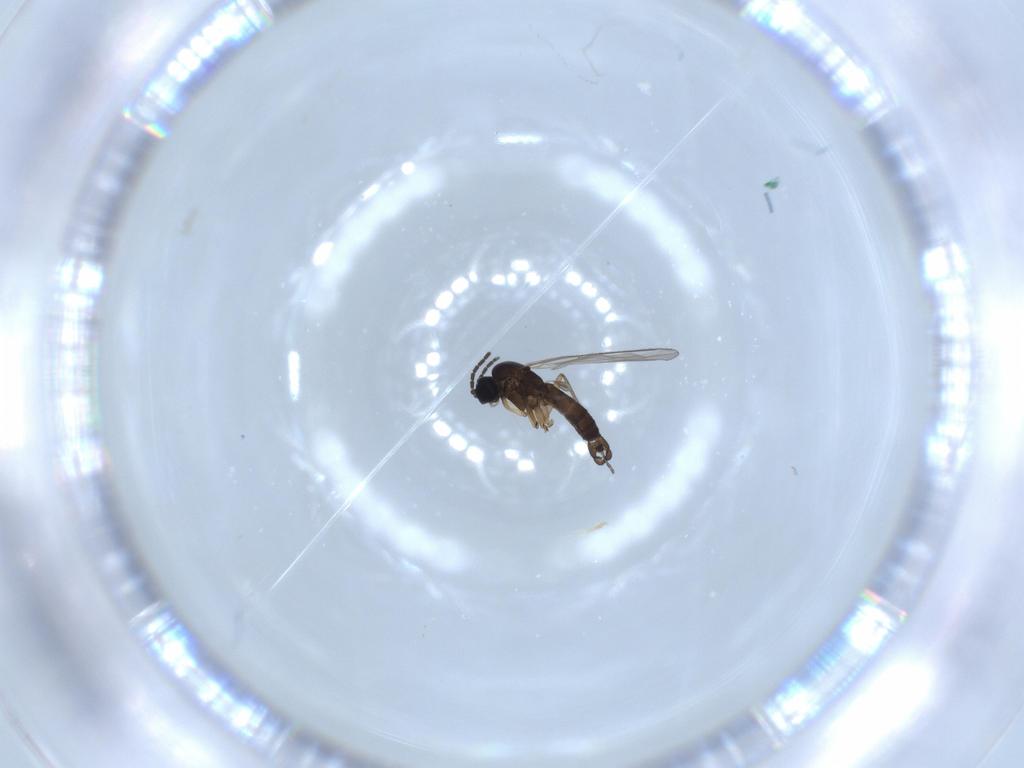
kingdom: Animalia
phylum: Arthropoda
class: Insecta
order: Diptera
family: Sciaridae
